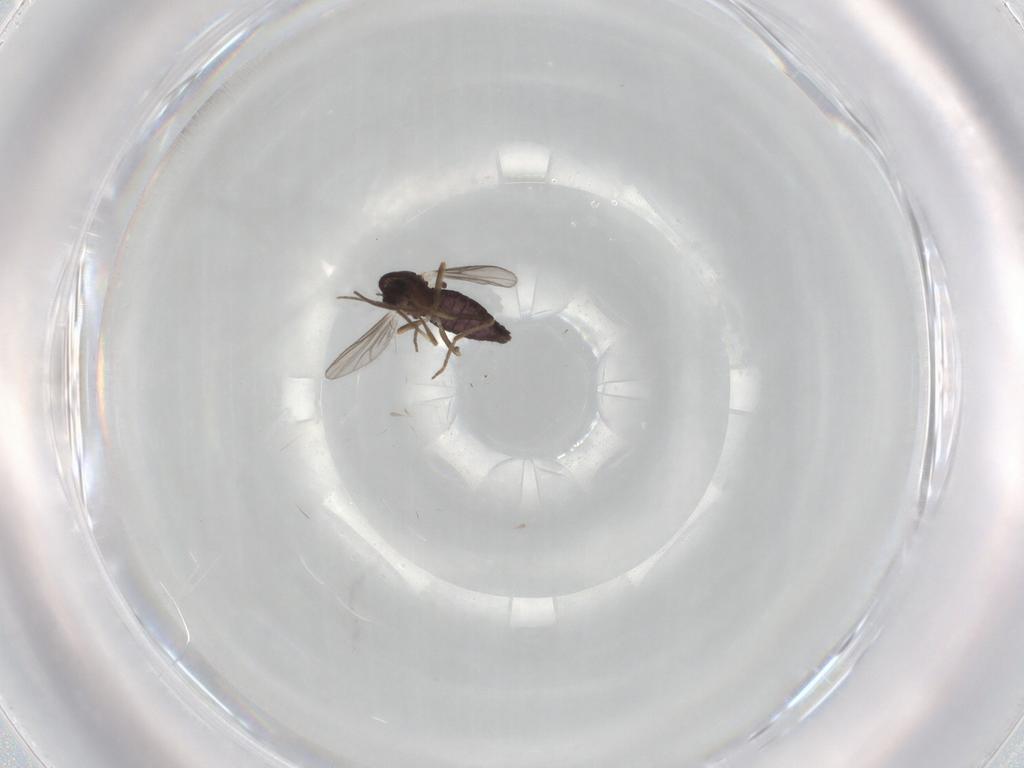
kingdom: Animalia
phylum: Arthropoda
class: Insecta
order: Diptera
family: Chironomidae
